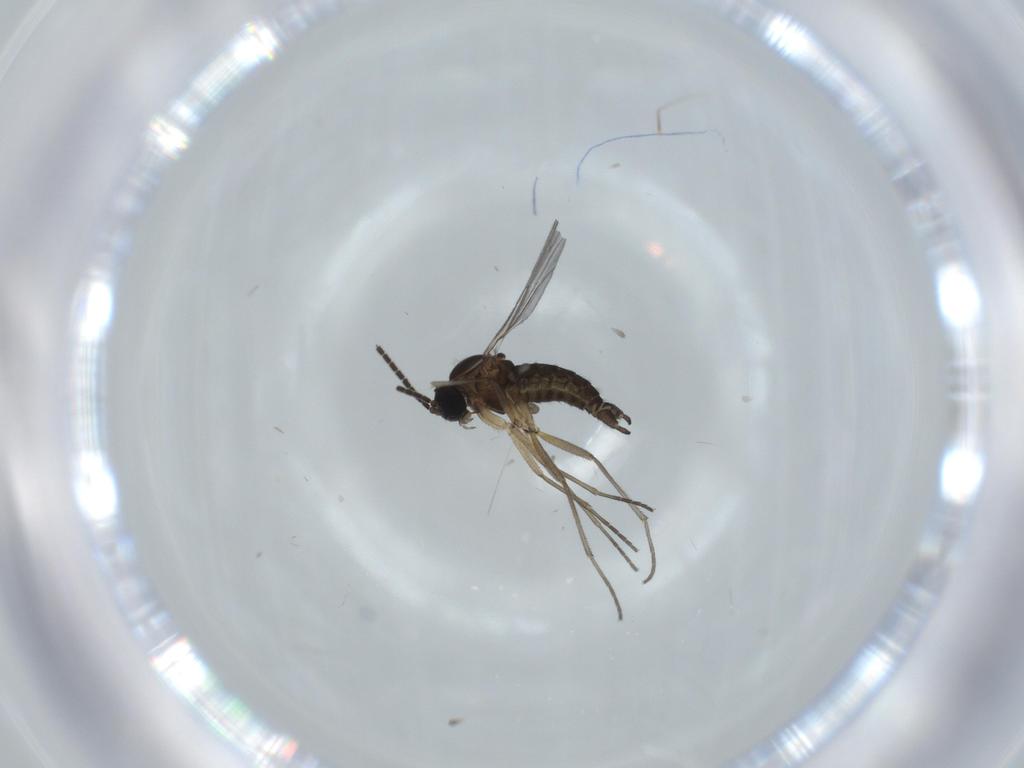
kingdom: Animalia
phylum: Arthropoda
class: Insecta
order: Diptera
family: Sciaridae
